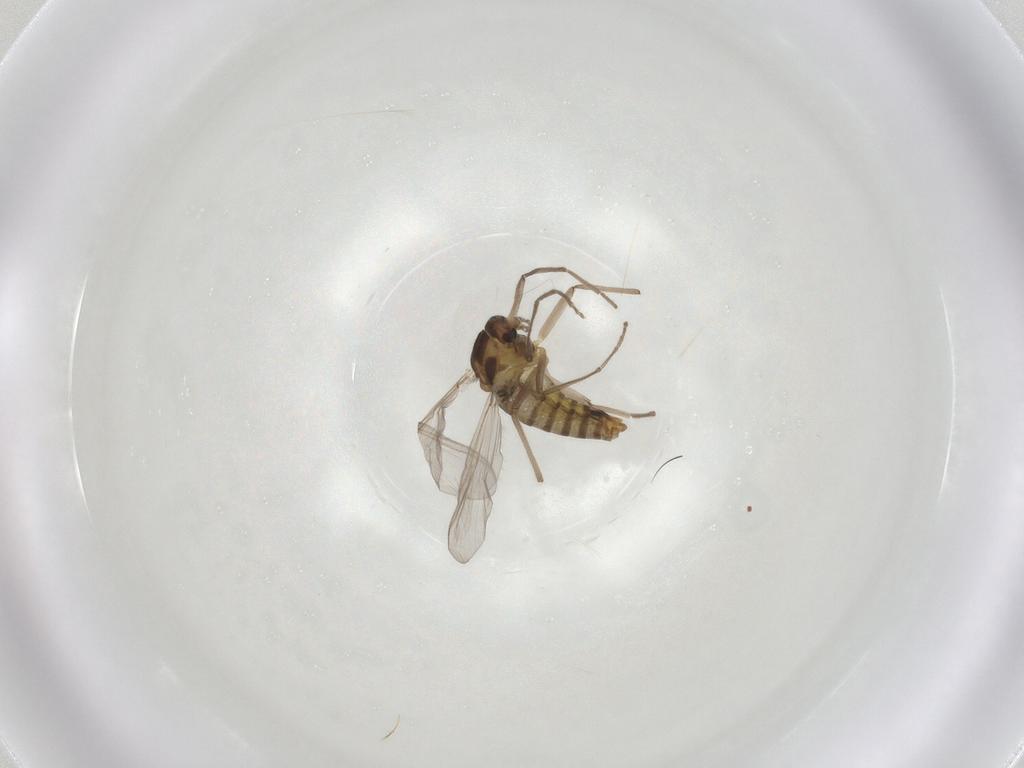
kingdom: Animalia
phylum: Arthropoda
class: Insecta
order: Diptera
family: Chironomidae
